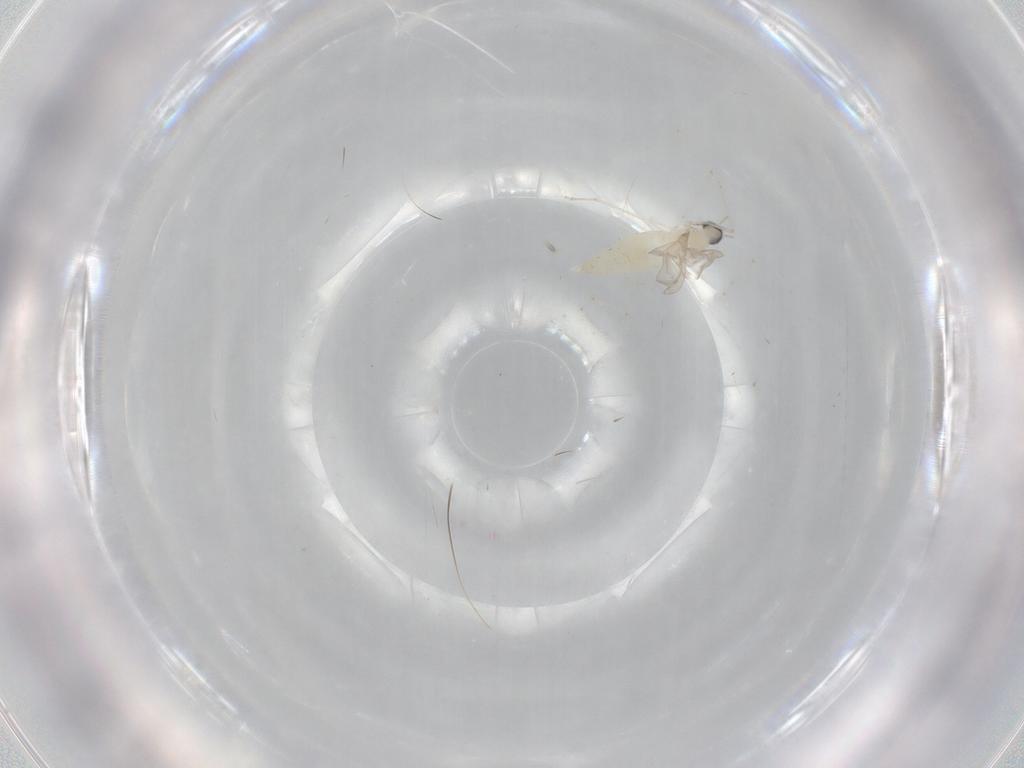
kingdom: Animalia
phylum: Arthropoda
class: Insecta
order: Diptera
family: Cecidomyiidae
